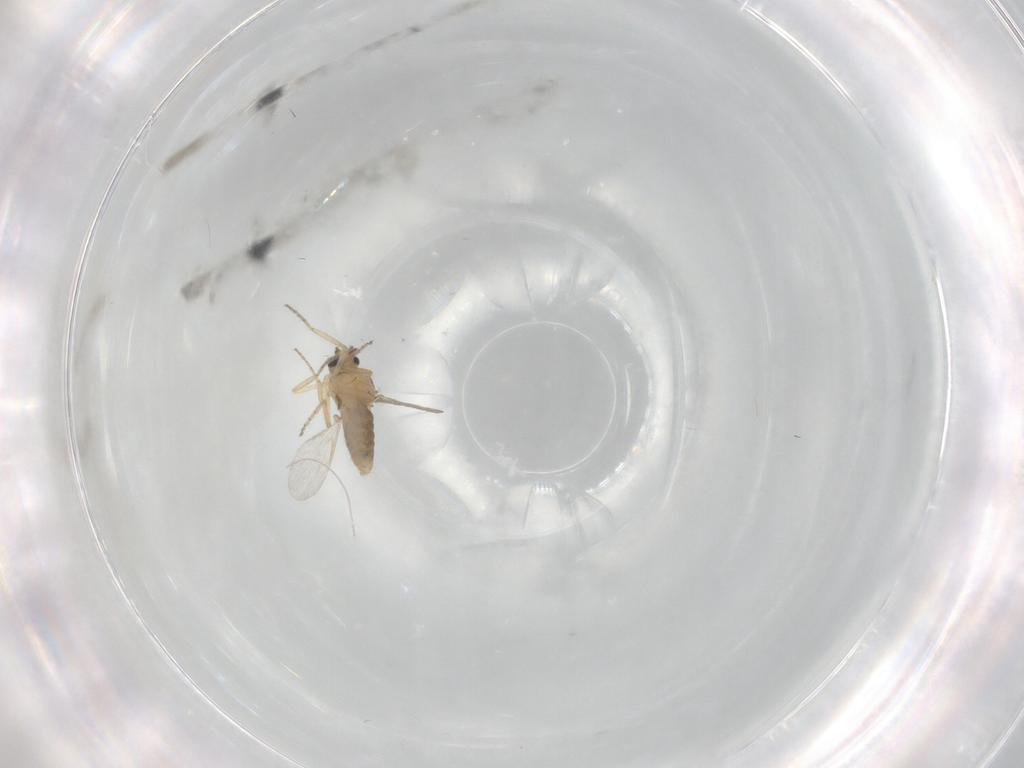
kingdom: Animalia
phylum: Arthropoda
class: Insecta
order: Diptera
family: Ceratopogonidae
